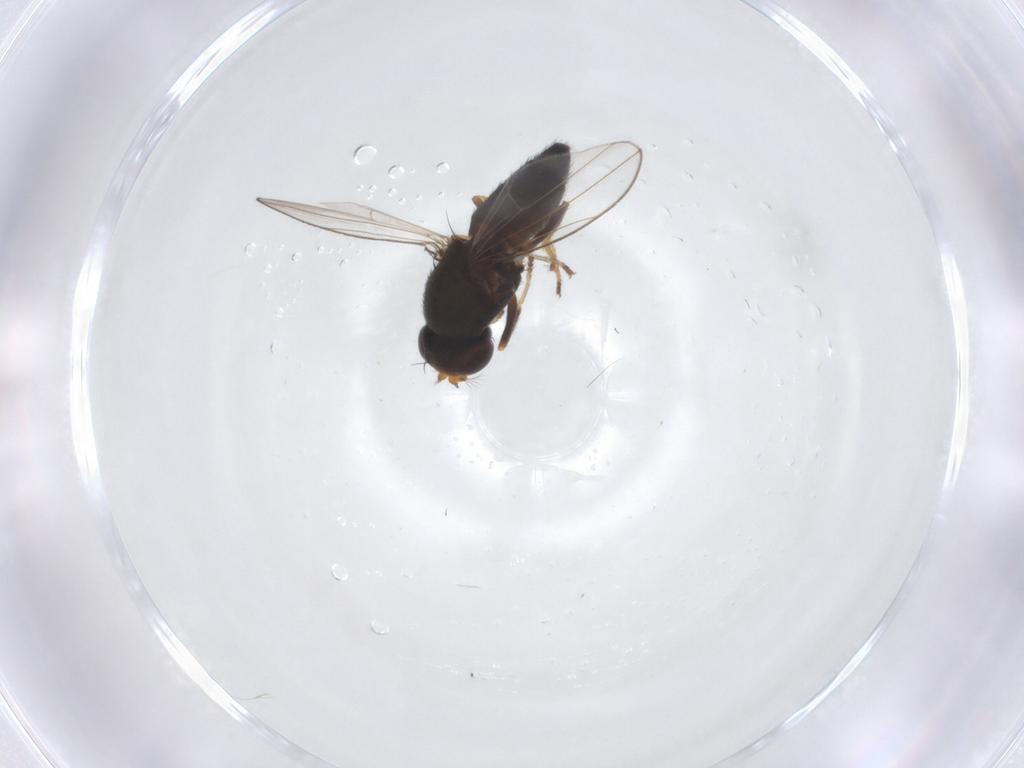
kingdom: Animalia
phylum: Arthropoda
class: Insecta
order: Diptera
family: Ephydridae
